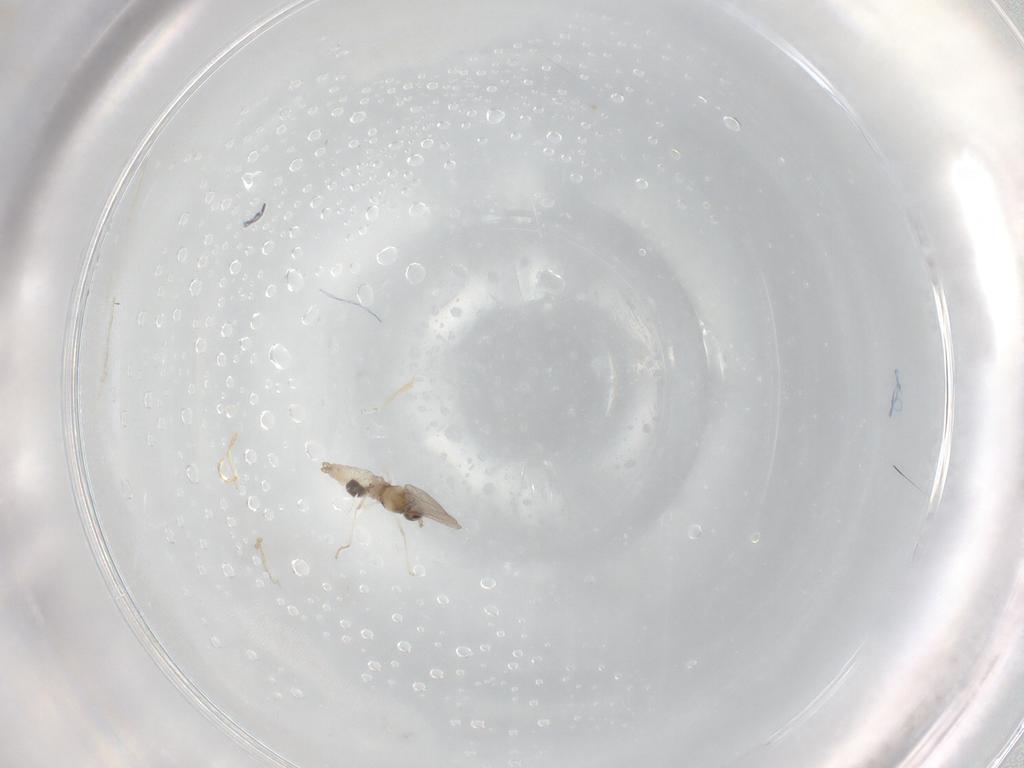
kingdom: Animalia
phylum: Arthropoda
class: Insecta
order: Diptera
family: Cecidomyiidae
